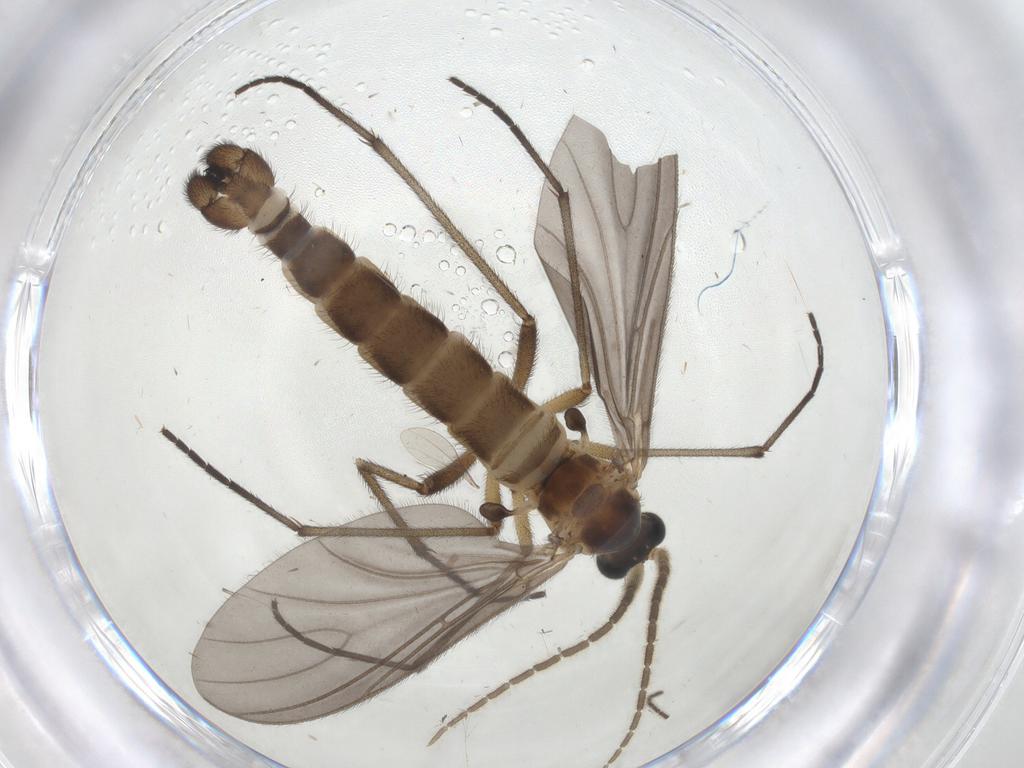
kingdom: Animalia
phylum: Arthropoda
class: Insecta
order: Diptera
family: Sciaridae
